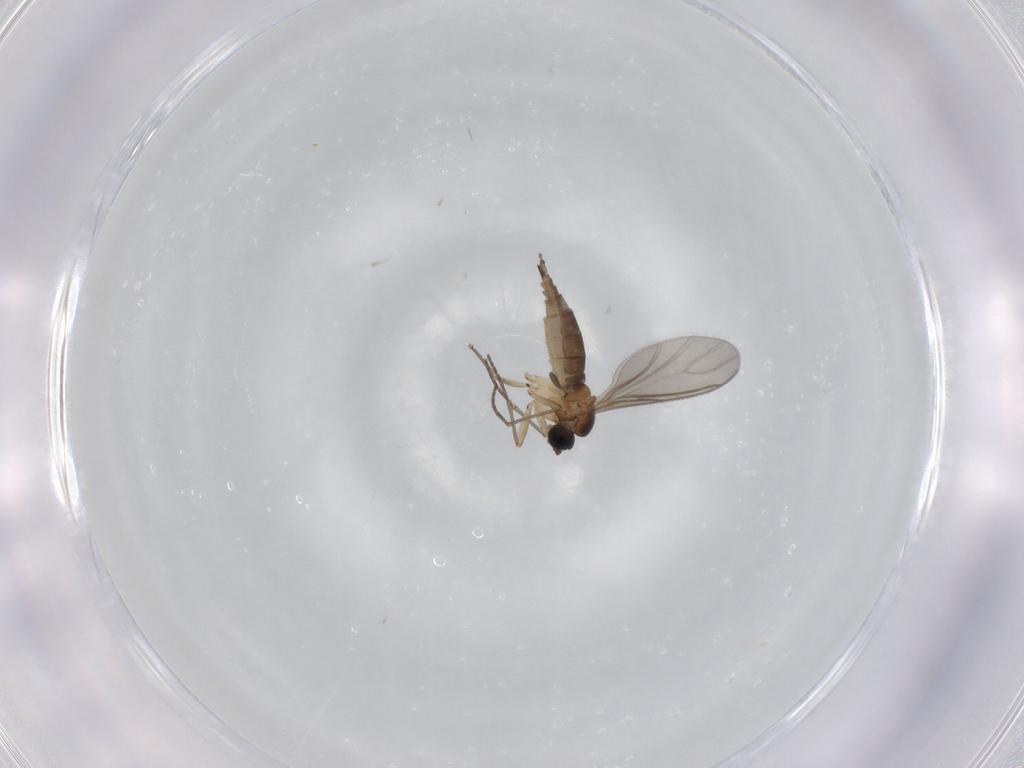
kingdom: Animalia
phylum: Arthropoda
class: Insecta
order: Diptera
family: Sciaridae
